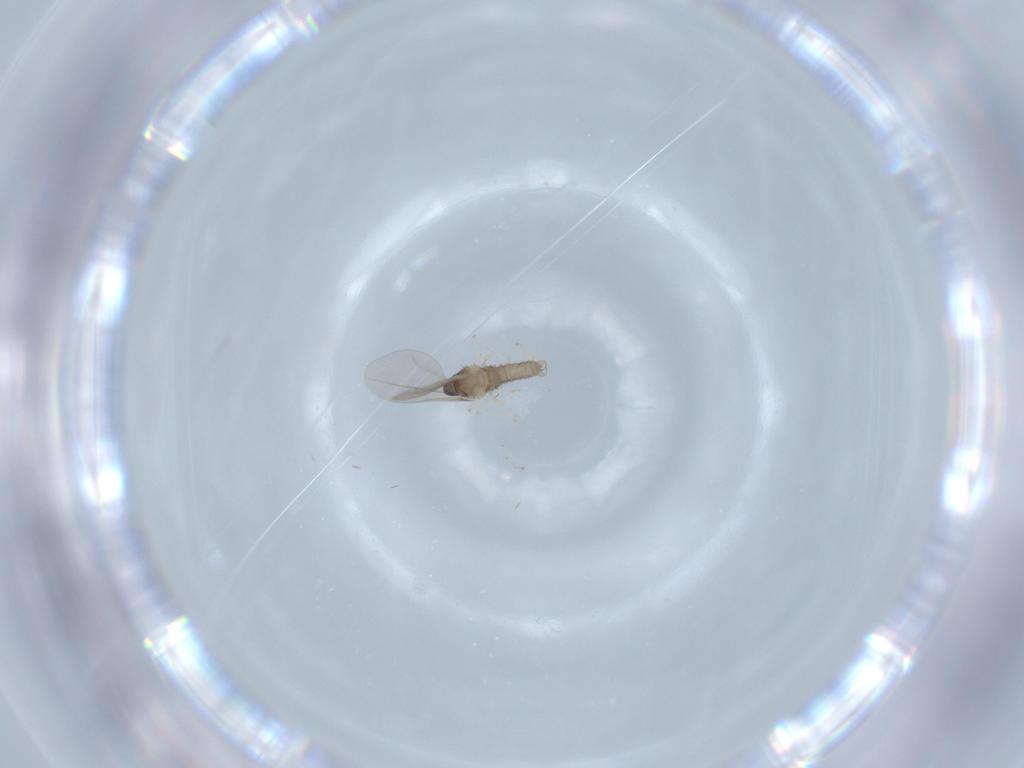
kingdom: Animalia
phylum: Arthropoda
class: Insecta
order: Diptera
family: Cecidomyiidae
